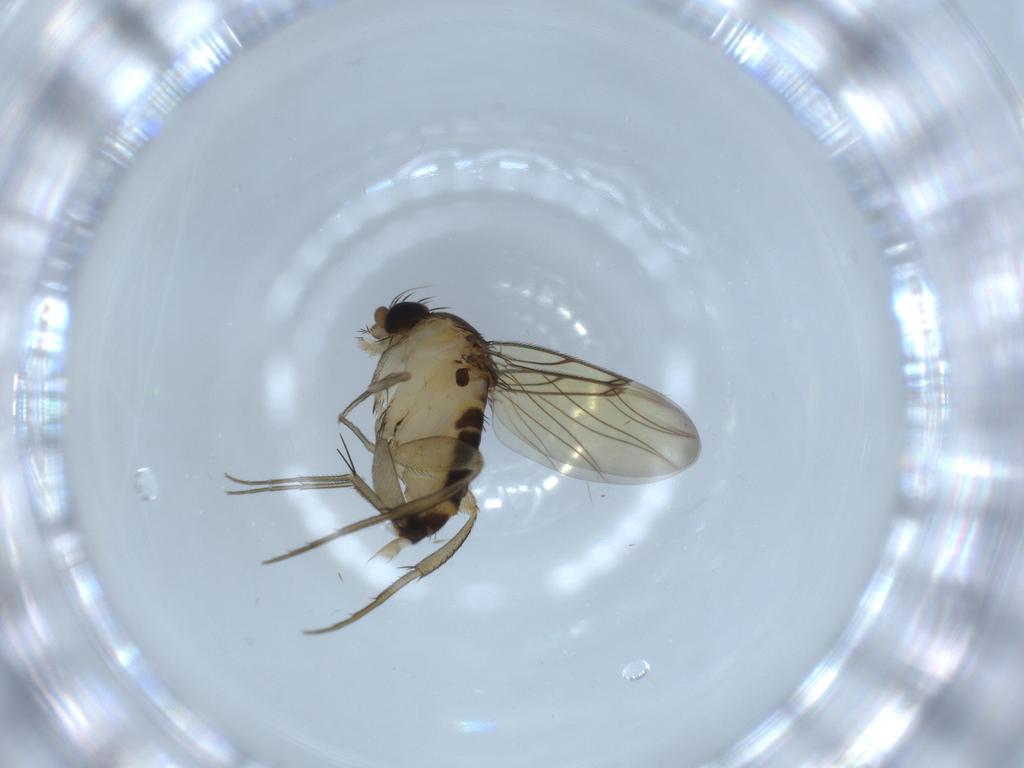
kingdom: Animalia
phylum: Arthropoda
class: Insecta
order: Diptera
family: Phoridae
